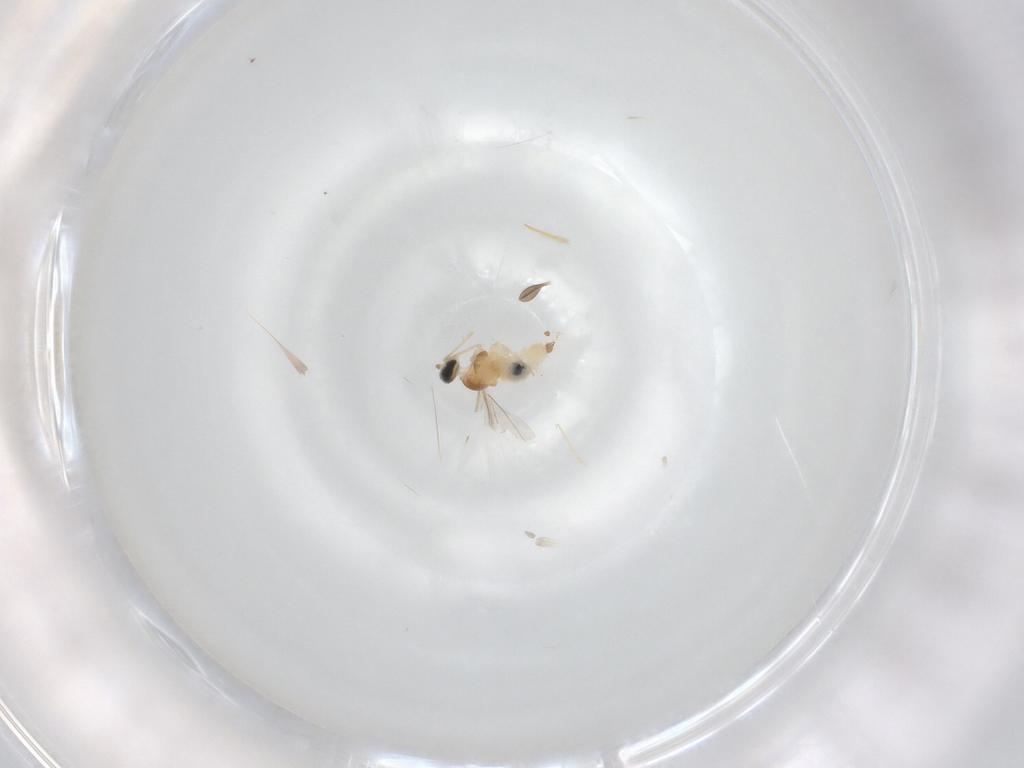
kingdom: Animalia
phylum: Arthropoda
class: Insecta
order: Diptera
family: Cecidomyiidae
